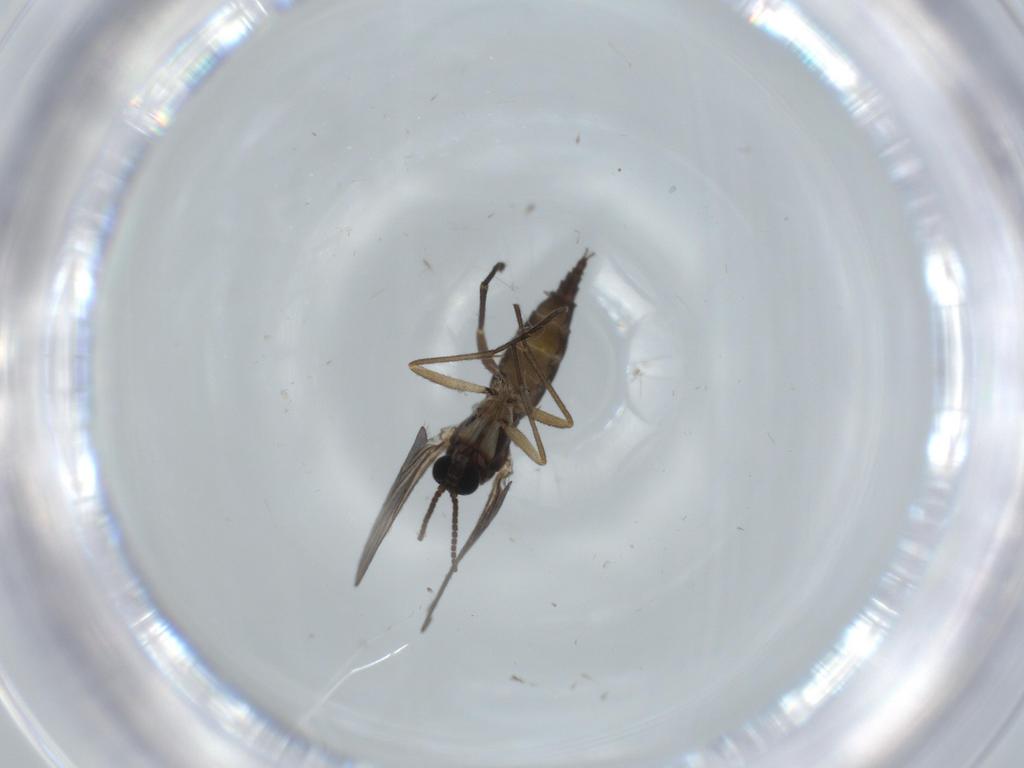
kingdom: Animalia
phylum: Arthropoda
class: Insecta
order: Diptera
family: Sciaridae
